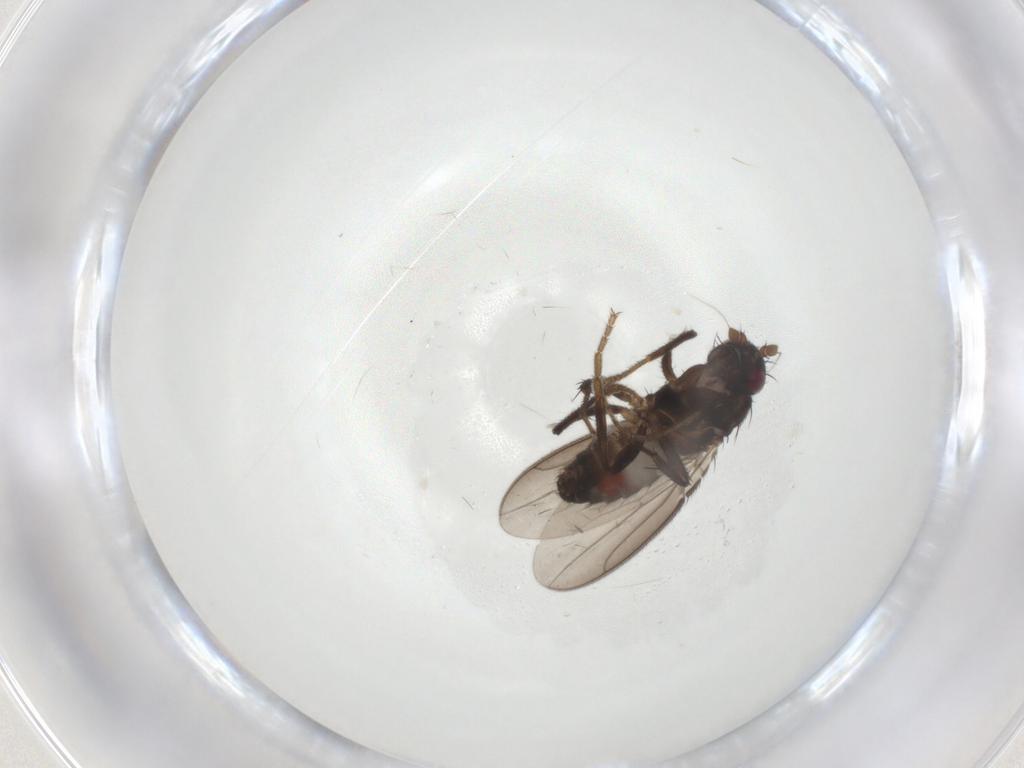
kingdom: Animalia
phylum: Arthropoda
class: Insecta
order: Diptera
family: Sphaeroceridae
